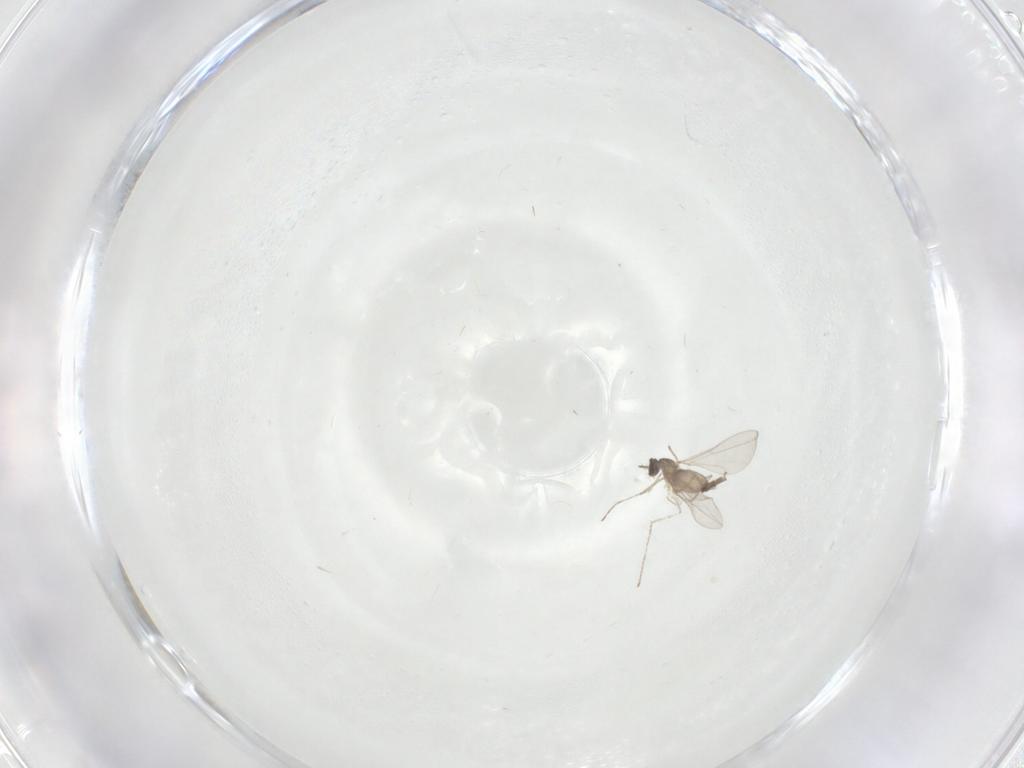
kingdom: Animalia
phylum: Arthropoda
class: Insecta
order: Diptera
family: Cecidomyiidae
